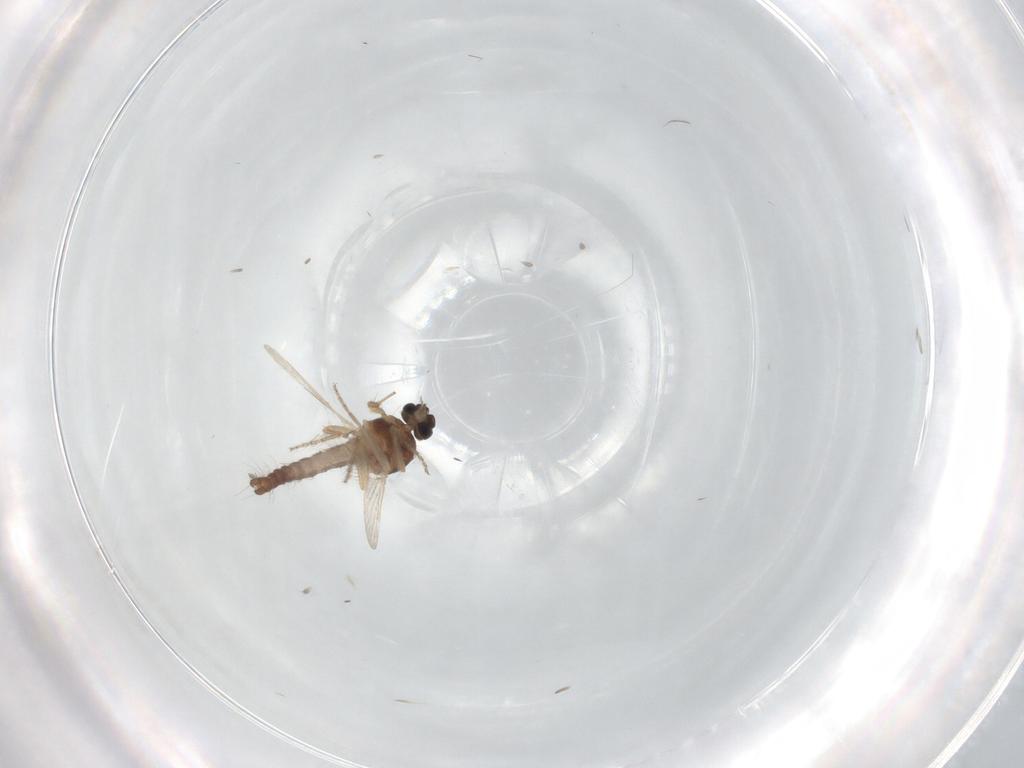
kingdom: Animalia
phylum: Arthropoda
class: Insecta
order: Diptera
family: Ceratopogonidae
